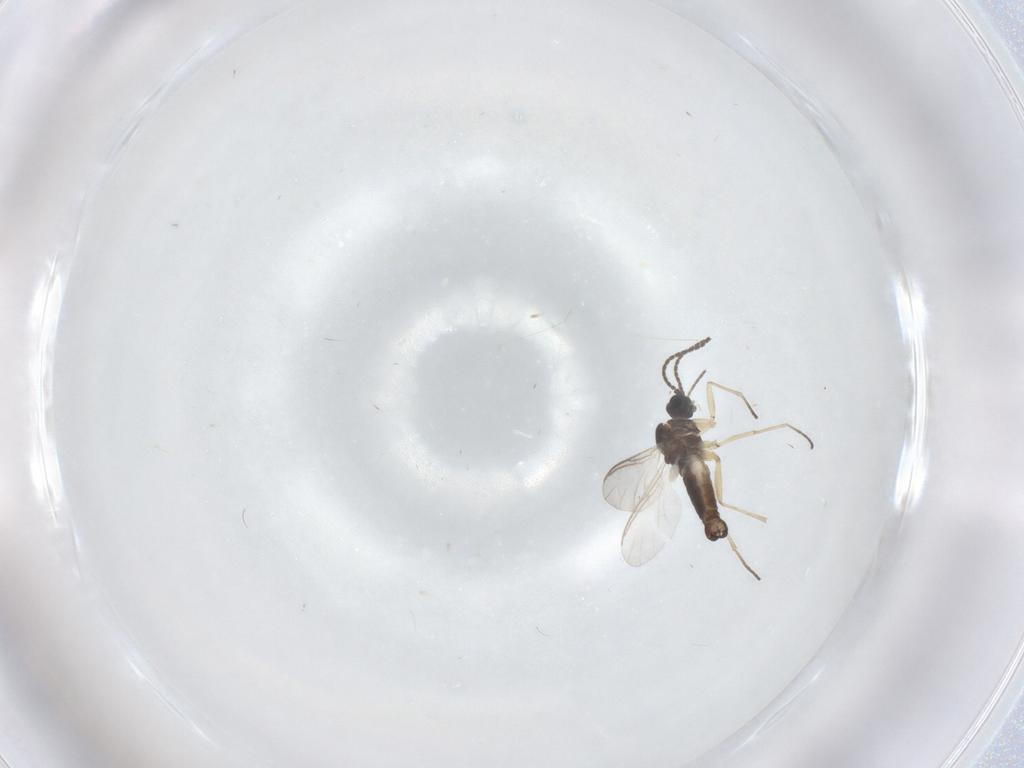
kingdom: Animalia
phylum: Arthropoda
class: Insecta
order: Diptera
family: Sciaridae
